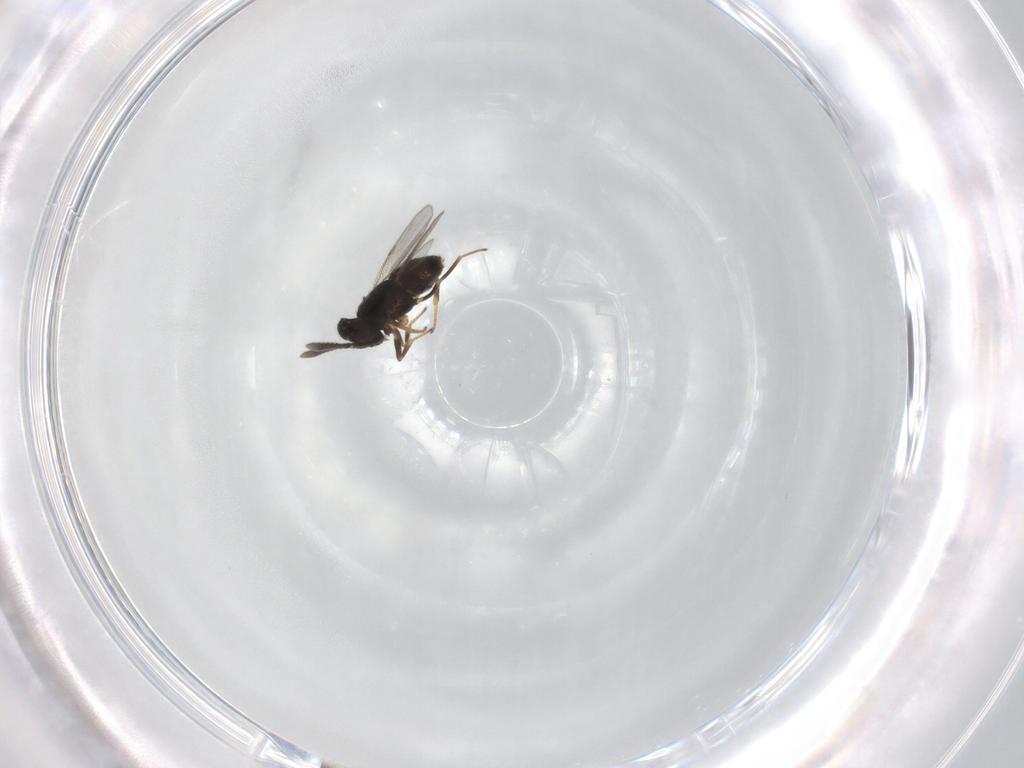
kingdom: Animalia
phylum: Arthropoda
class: Insecta
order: Hymenoptera
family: Encyrtidae
